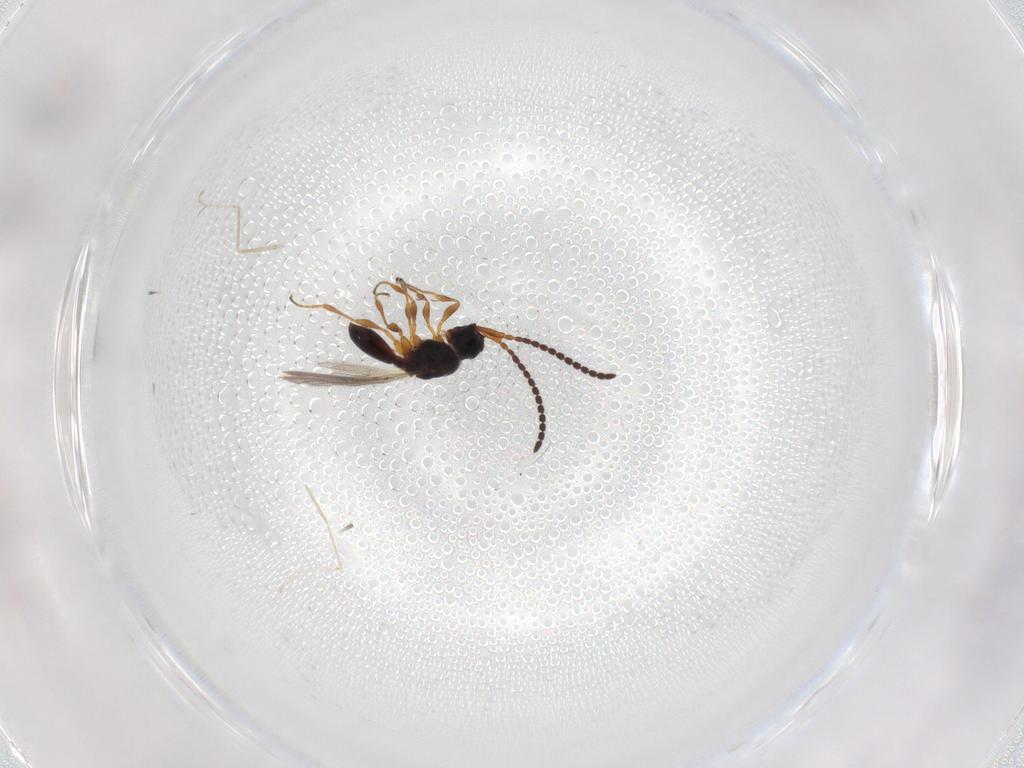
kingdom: Animalia
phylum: Arthropoda
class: Insecta
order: Hymenoptera
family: Diapriidae
